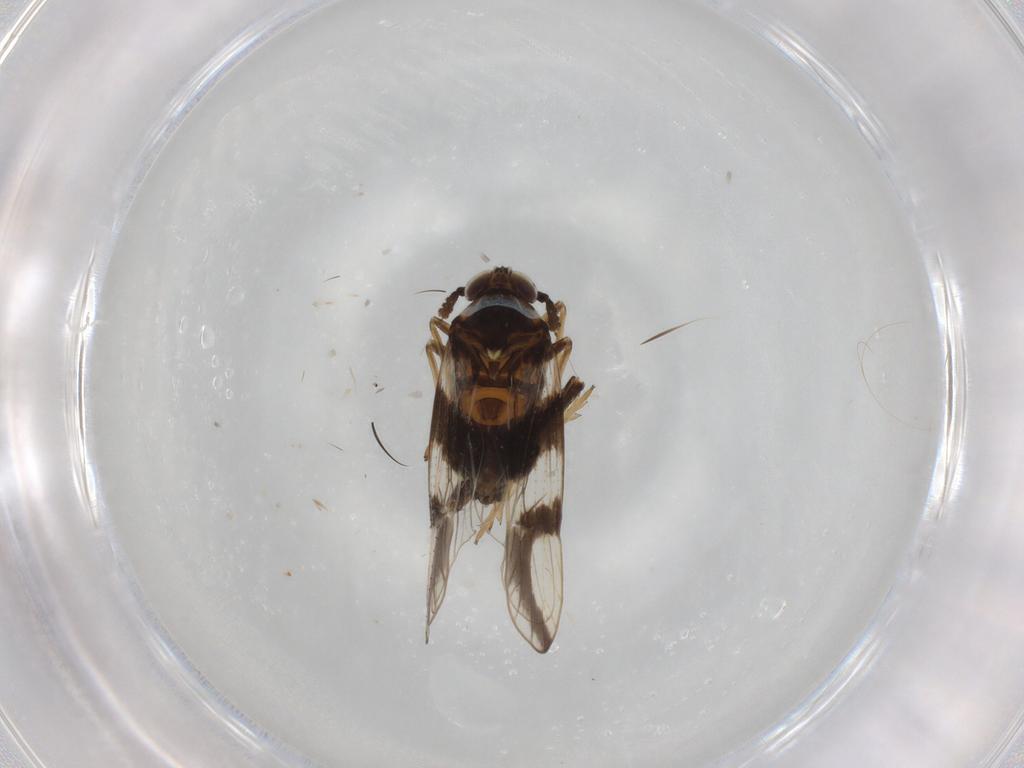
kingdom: Animalia
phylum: Arthropoda
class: Insecta
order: Hemiptera
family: Delphacidae
